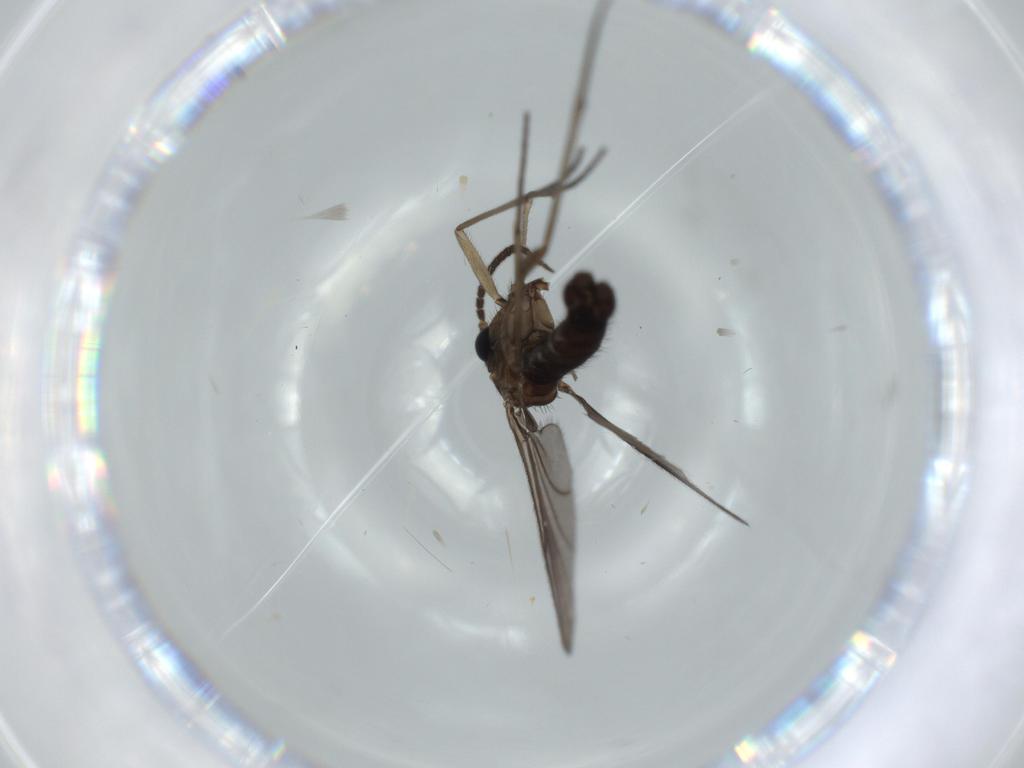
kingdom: Animalia
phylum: Arthropoda
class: Insecta
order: Diptera
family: Sciaridae
